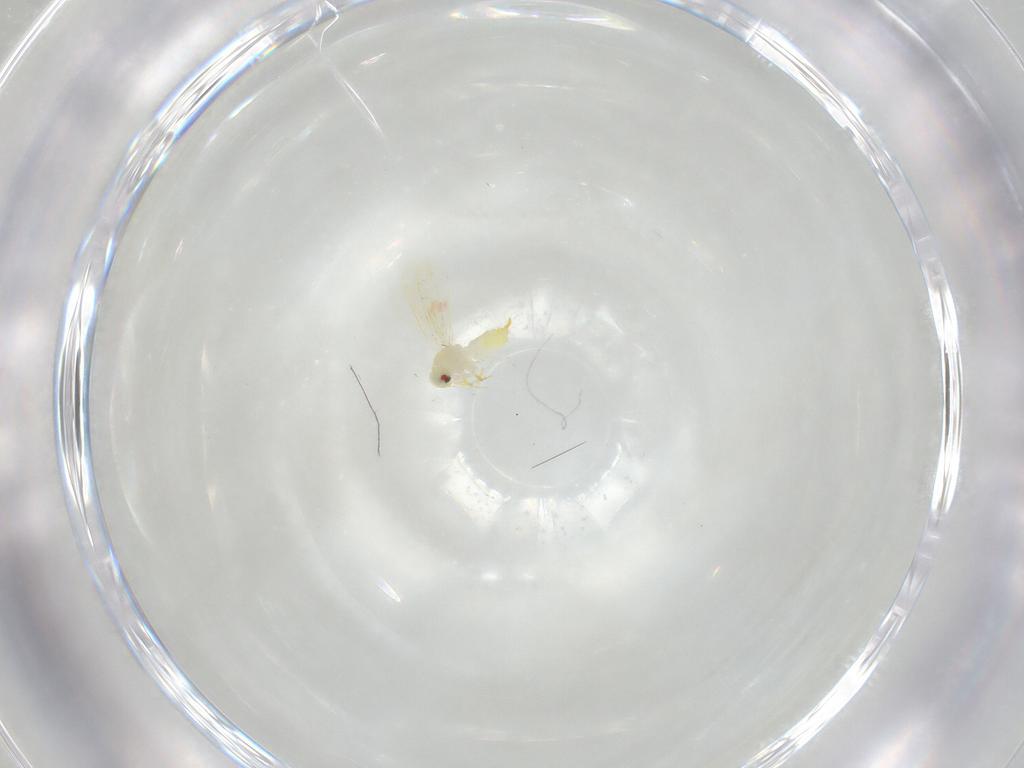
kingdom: Animalia
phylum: Arthropoda
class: Insecta
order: Hemiptera
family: Aleyrodidae
